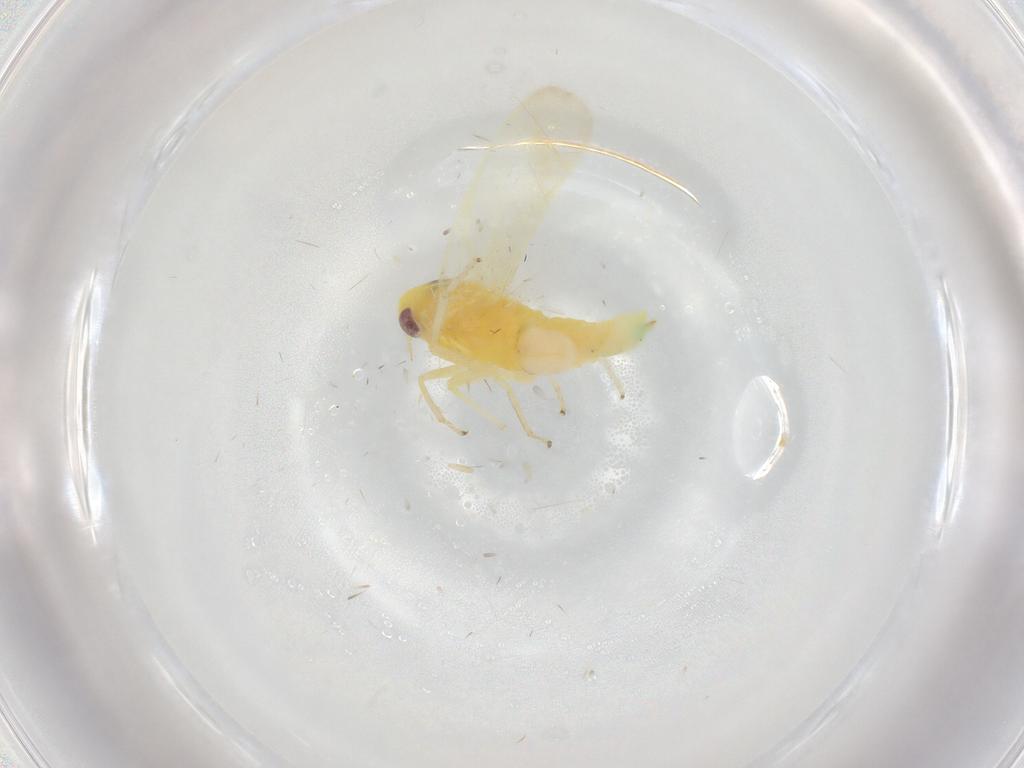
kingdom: Animalia
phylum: Arthropoda
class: Insecta
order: Hemiptera
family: Cicadellidae
